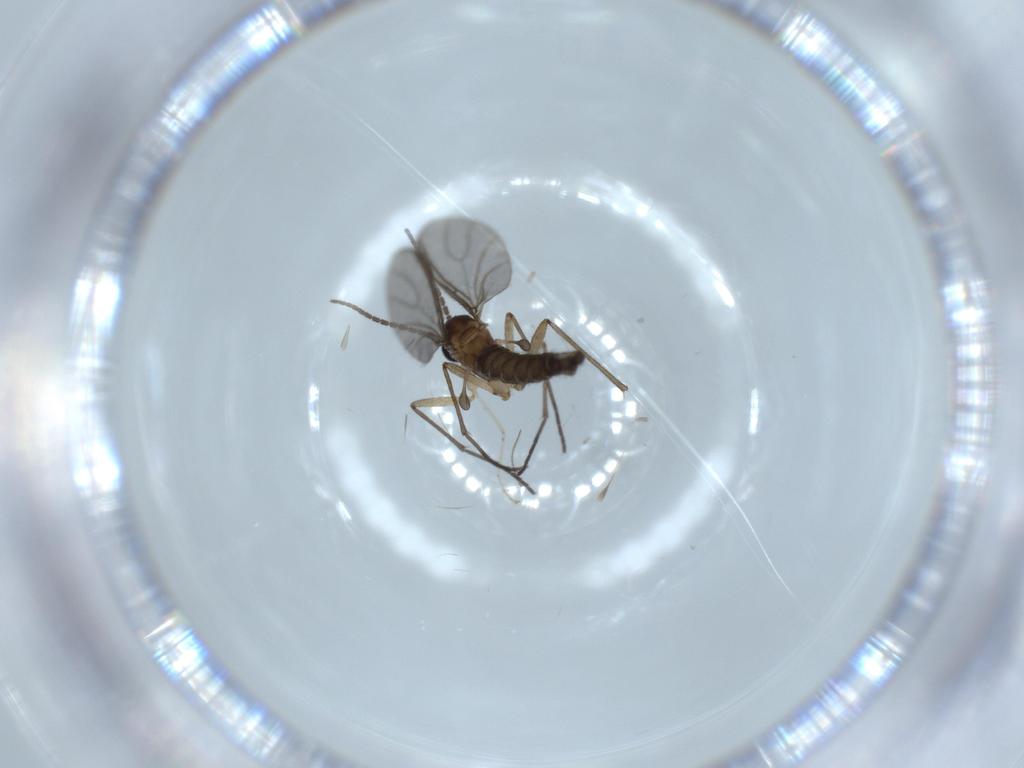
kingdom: Animalia
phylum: Arthropoda
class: Insecta
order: Diptera
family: Cecidomyiidae
